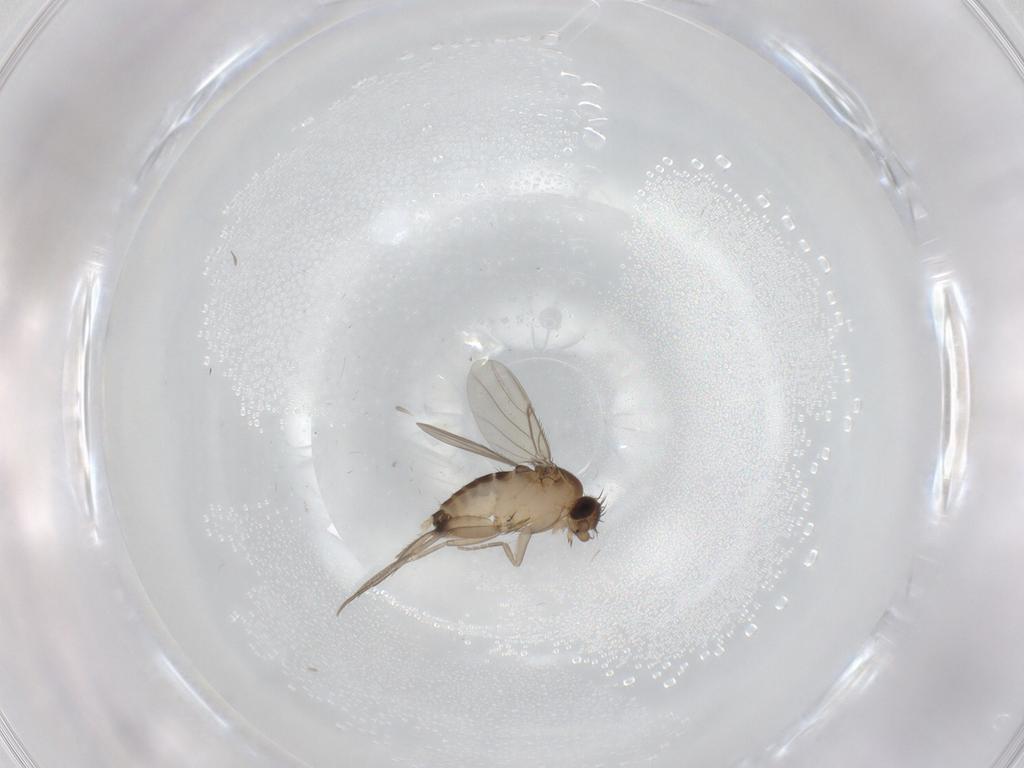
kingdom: Animalia
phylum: Arthropoda
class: Insecta
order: Diptera
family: Phoridae
